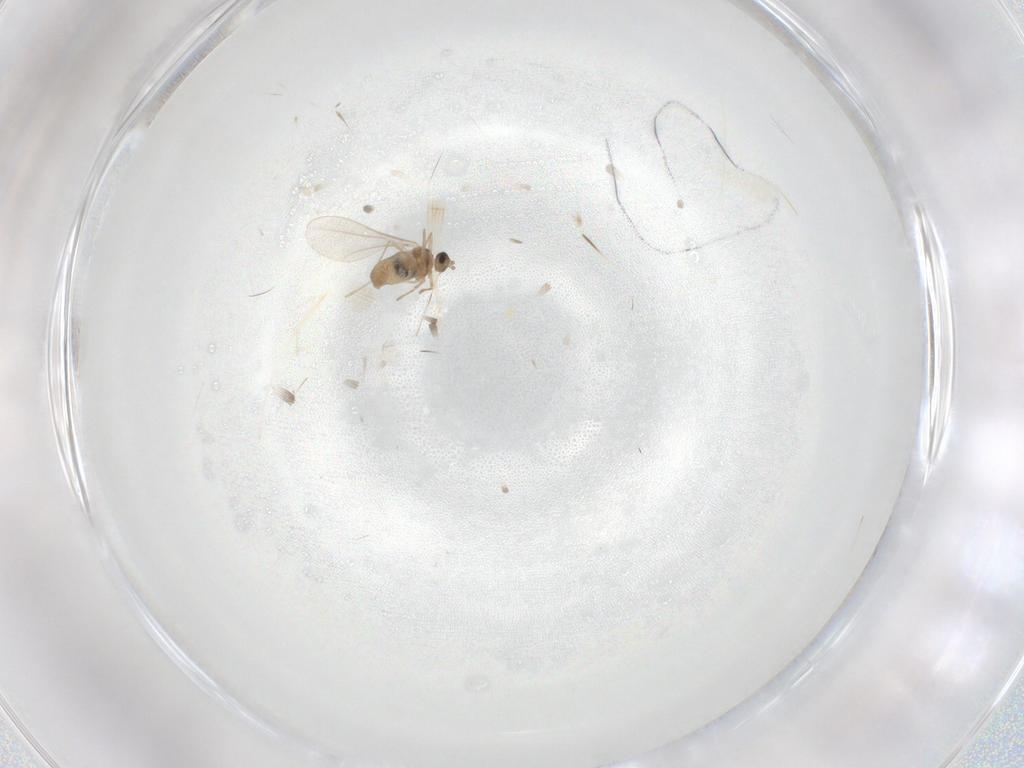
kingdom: Animalia
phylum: Arthropoda
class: Insecta
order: Diptera
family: Cecidomyiidae
